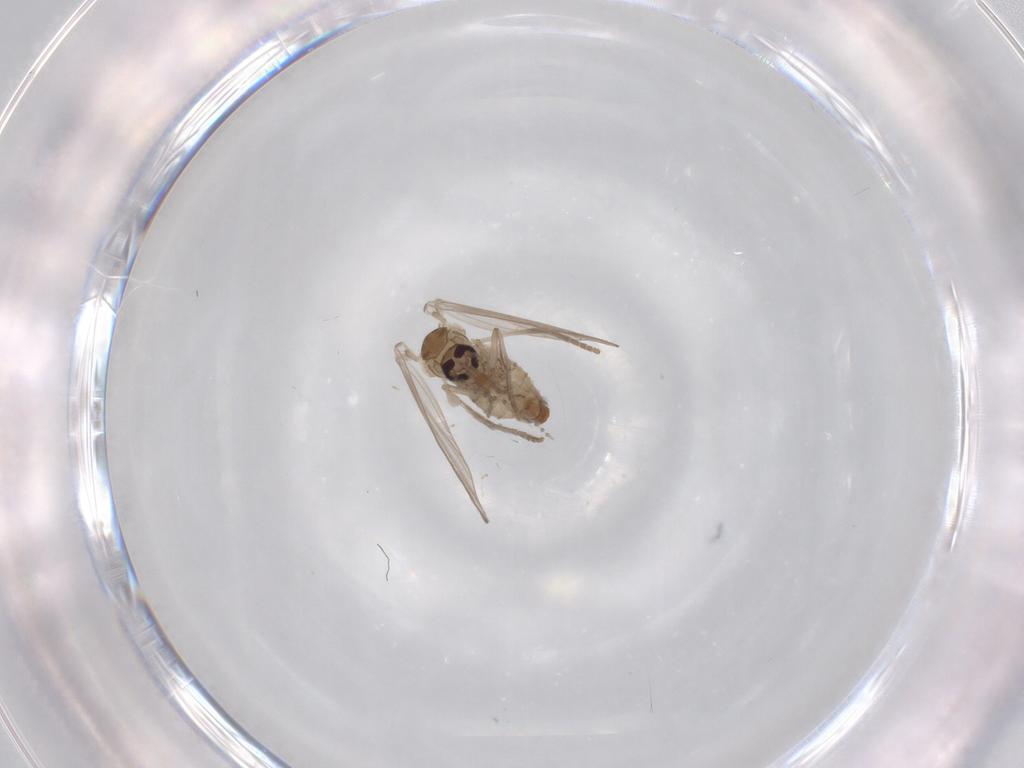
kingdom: Animalia
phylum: Arthropoda
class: Insecta
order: Diptera
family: Psychodidae
